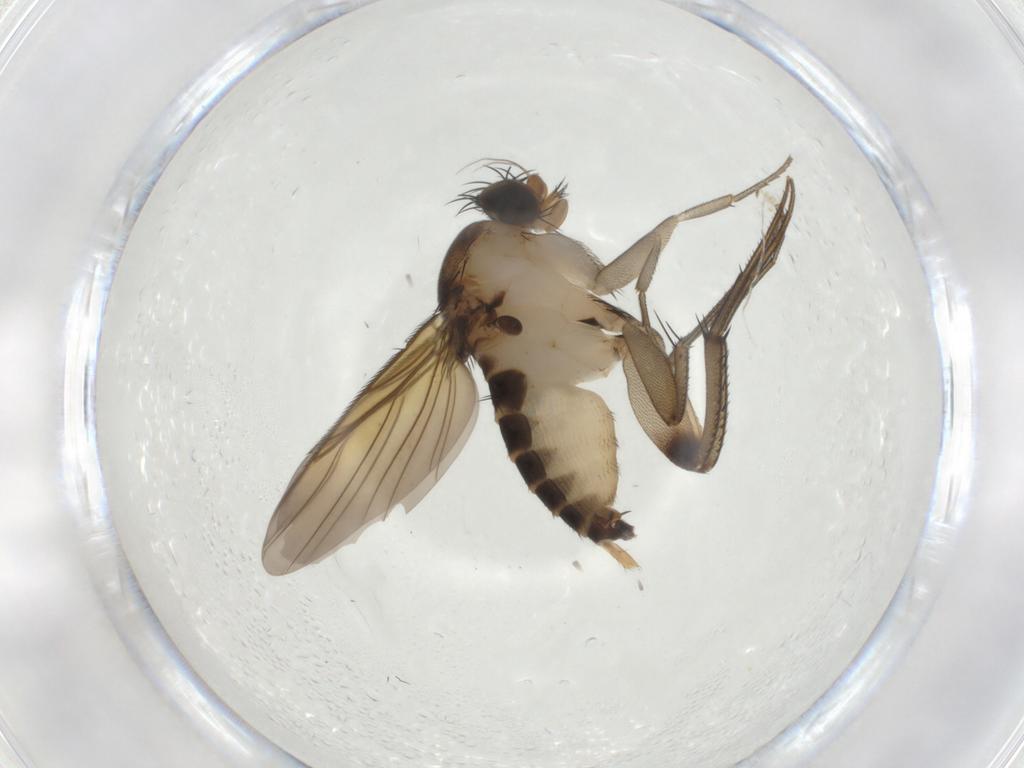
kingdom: Animalia
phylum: Arthropoda
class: Insecta
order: Diptera
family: Phoridae
